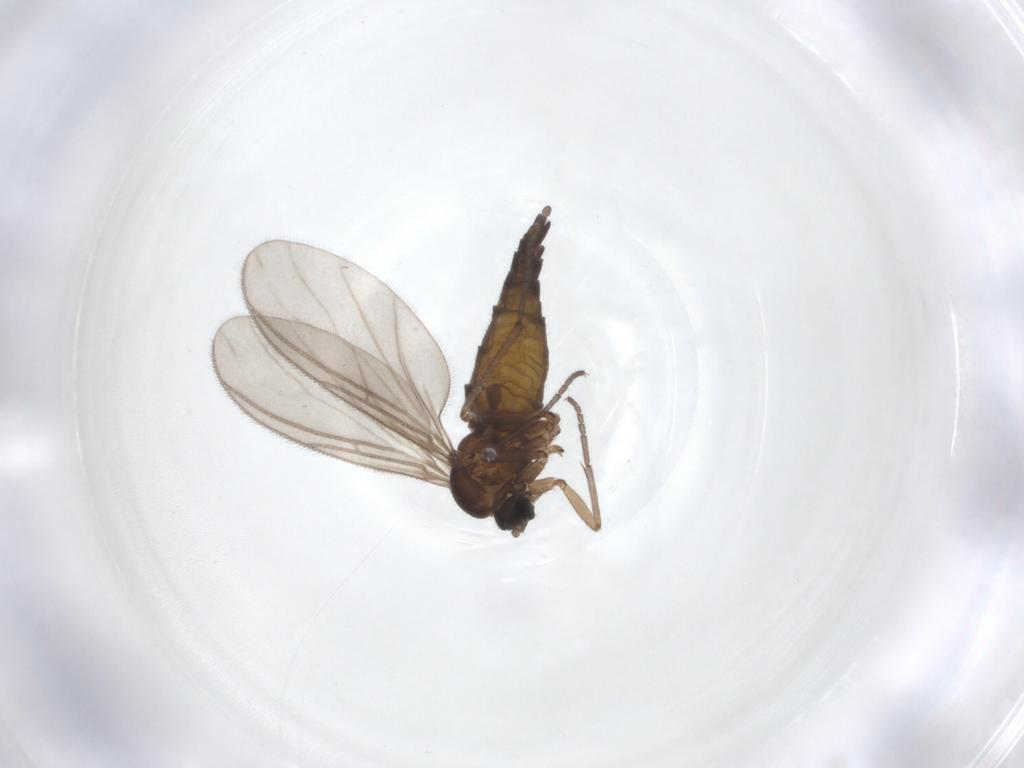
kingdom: Animalia
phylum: Arthropoda
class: Insecta
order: Diptera
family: Sciaridae
